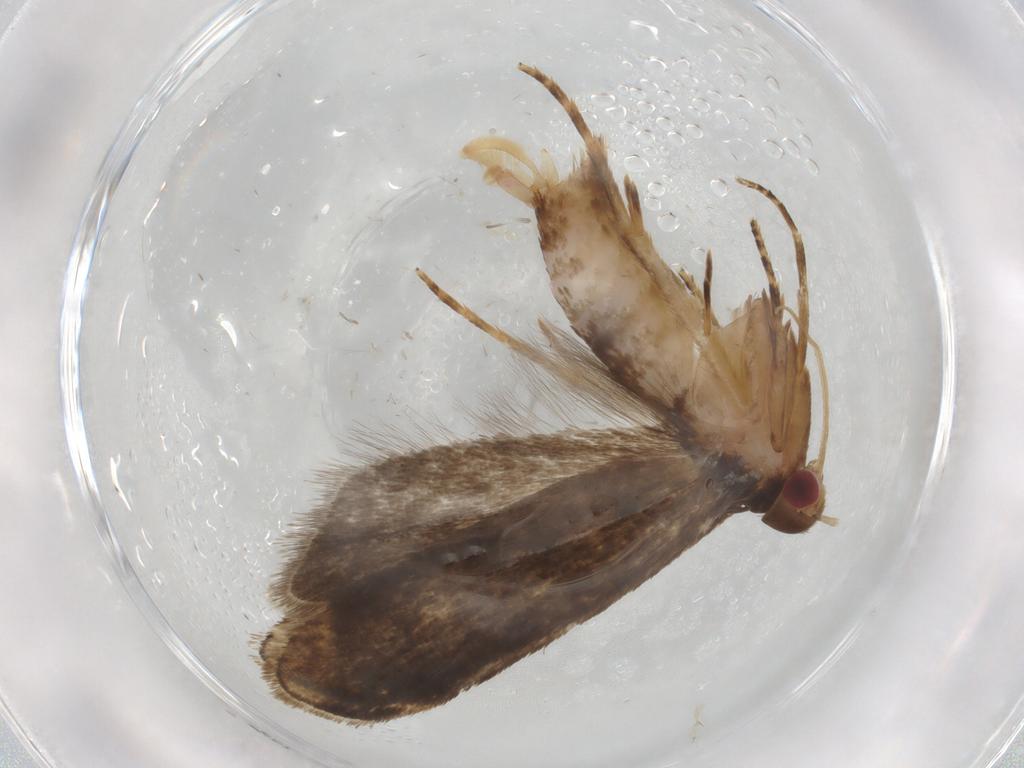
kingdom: Animalia
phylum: Arthropoda
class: Insecta
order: Lepidoptera
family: Gelechiidae
